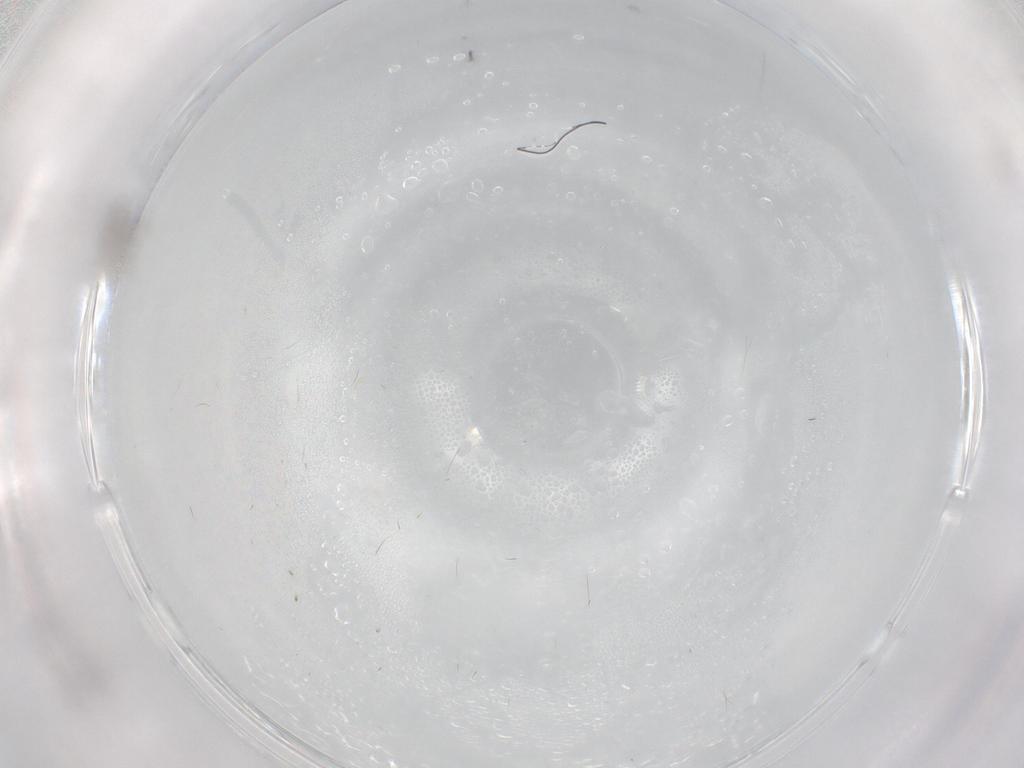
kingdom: Animalia
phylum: Arthropoda
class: Insecta
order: Diptera
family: Cecidomyiidae
